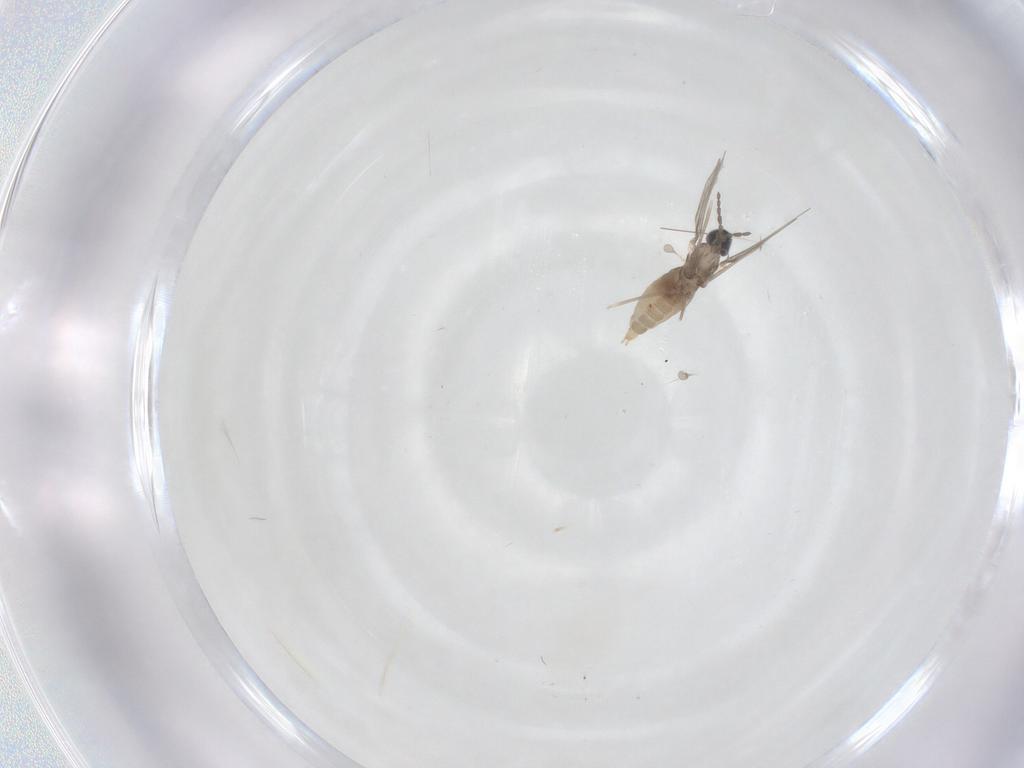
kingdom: Animalia
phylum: Arthropoda
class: Insecta
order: Diptera
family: Cecidomyiidae
